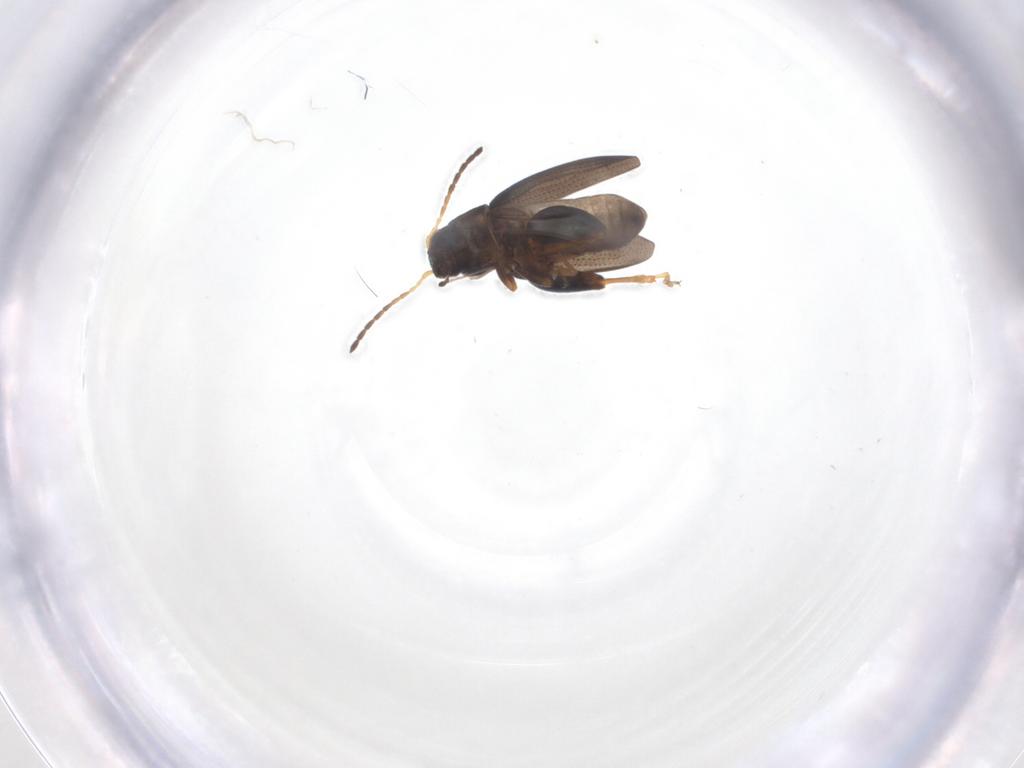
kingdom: Animalia
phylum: Arthropoda
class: Insecta
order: Coleoptera
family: Chrysomelidae
